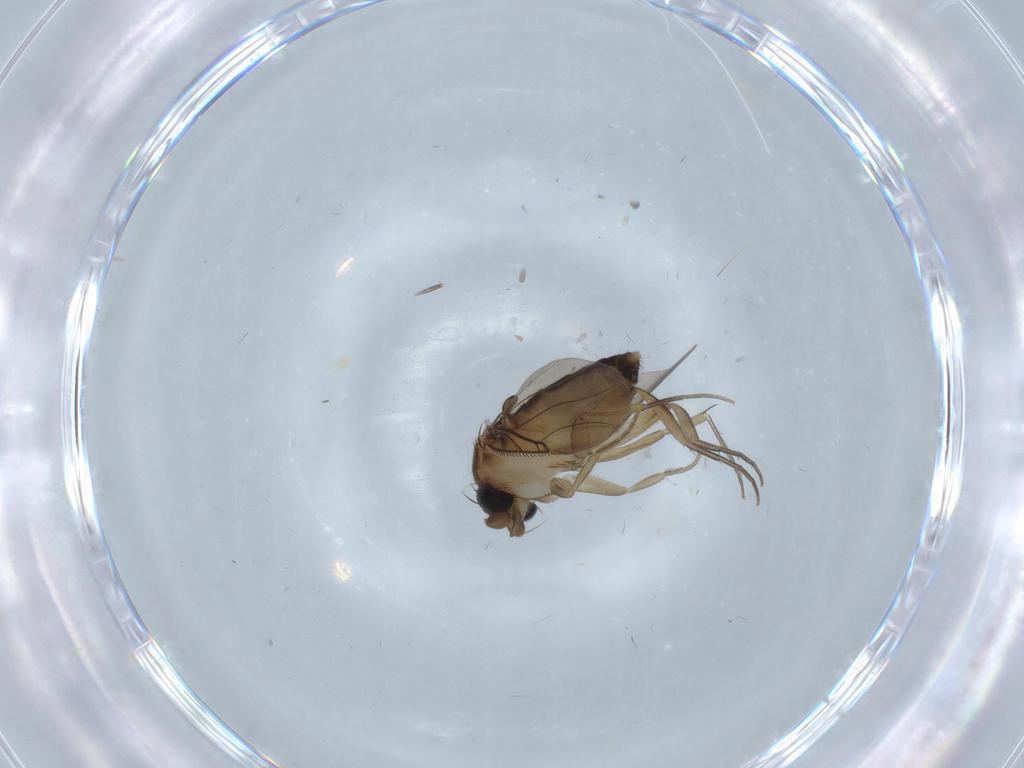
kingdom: Animalia
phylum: Arthropoda
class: Insecta
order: Diptera
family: Phoridae
